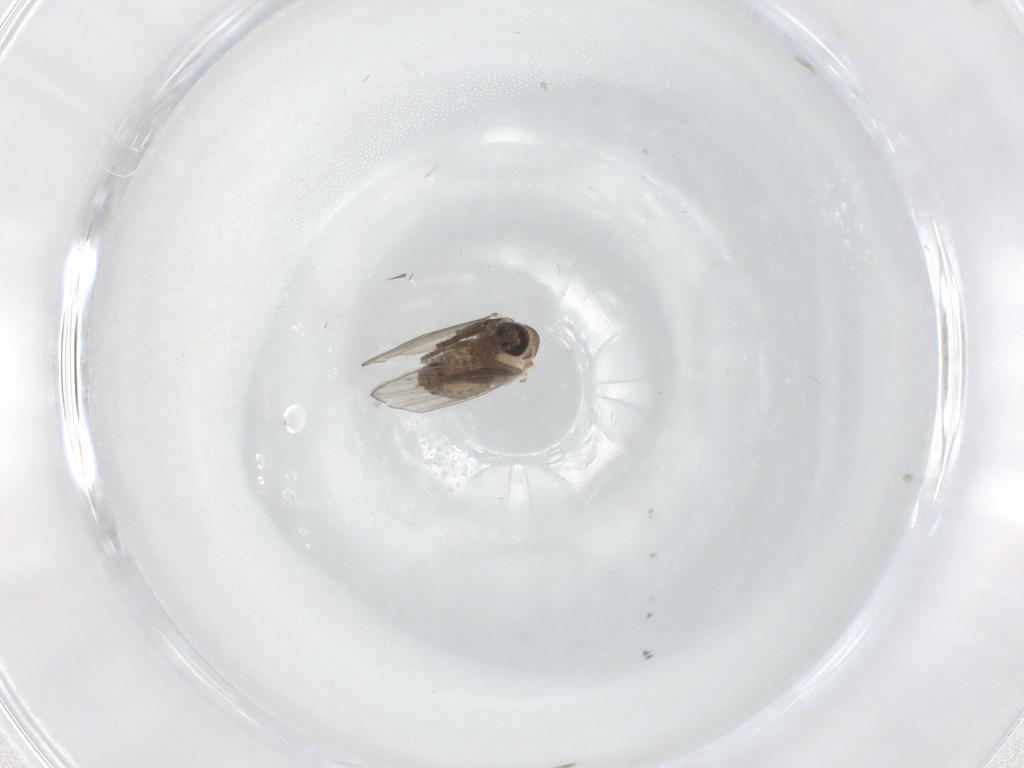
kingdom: Animalia
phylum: Arthropoda
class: Insecta
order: Diptera
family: Psychodidae
